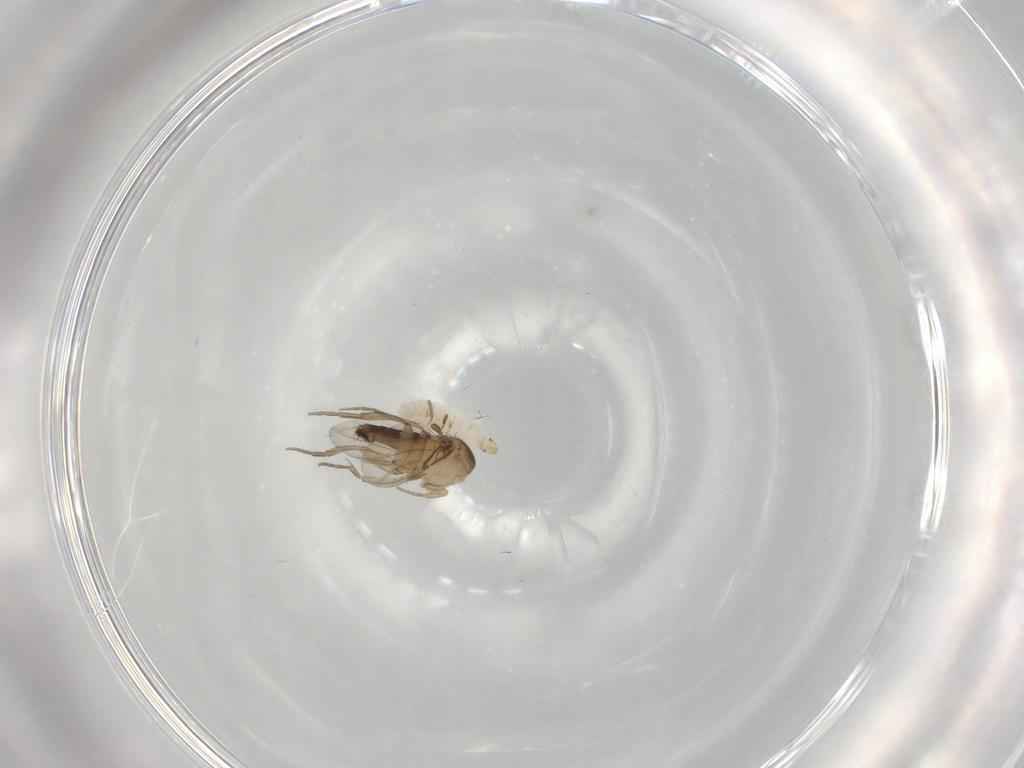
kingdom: Animalia
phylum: Arthropoda
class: Insecta
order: Diptera
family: Phoridae
